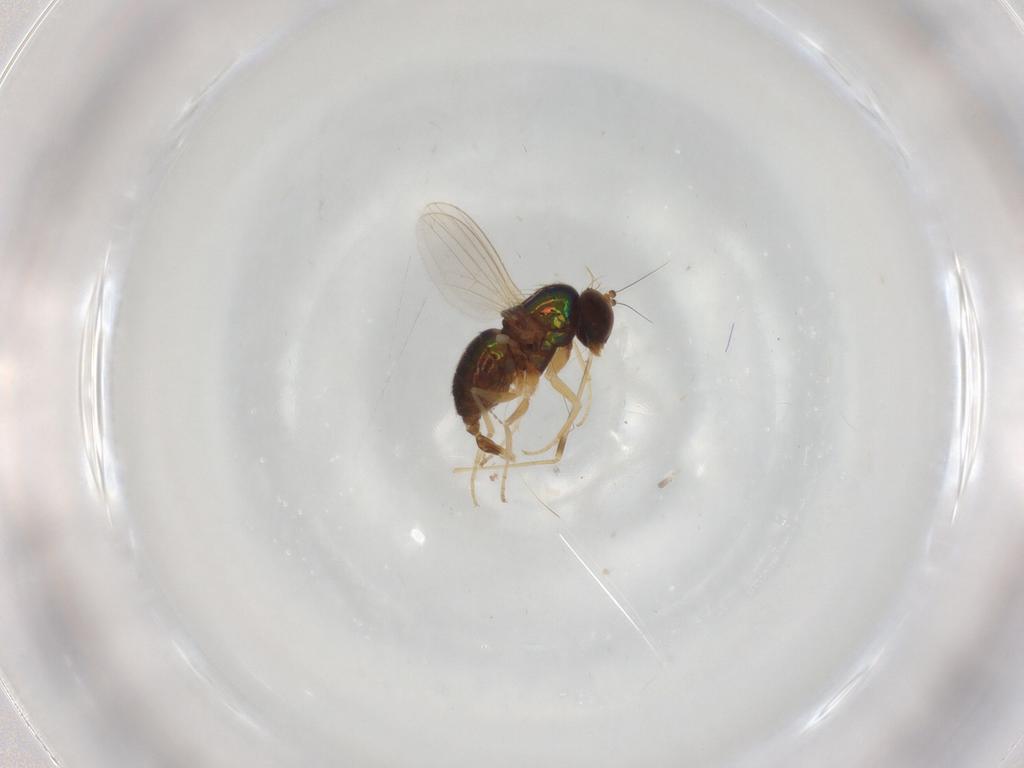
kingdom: Animalia
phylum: Arthropoda
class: Insecta
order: Diptera
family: Dolichopodidae
